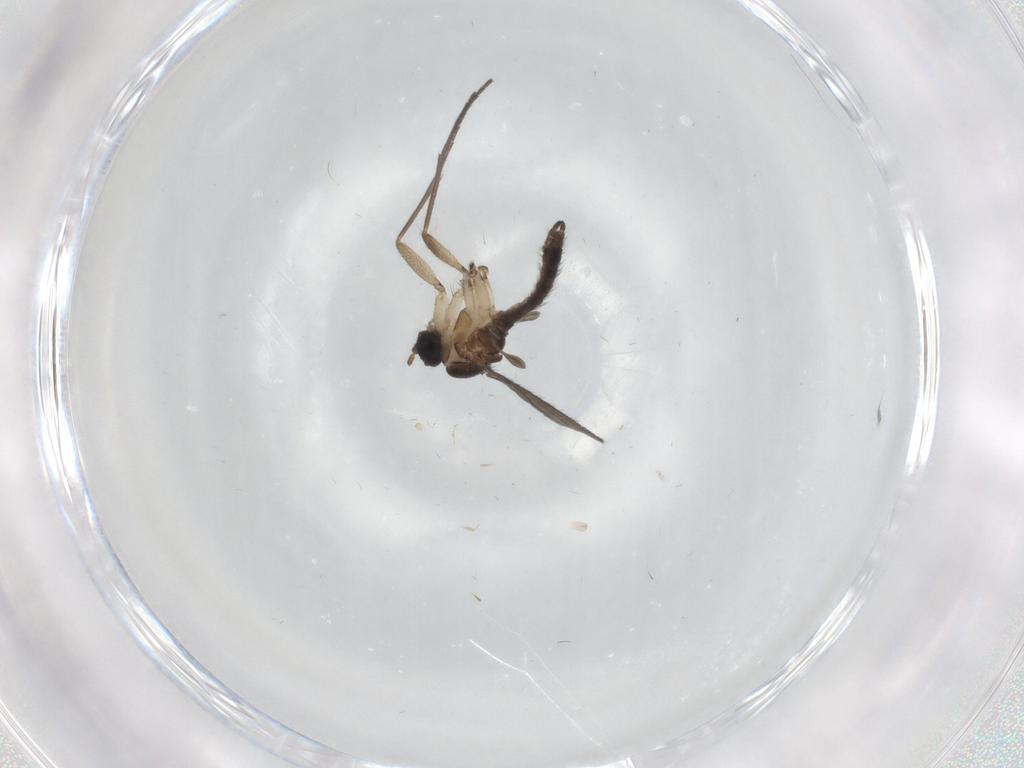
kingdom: Animalia
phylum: Arthropoda
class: Insecta
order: Diptera
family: Sciaridae
